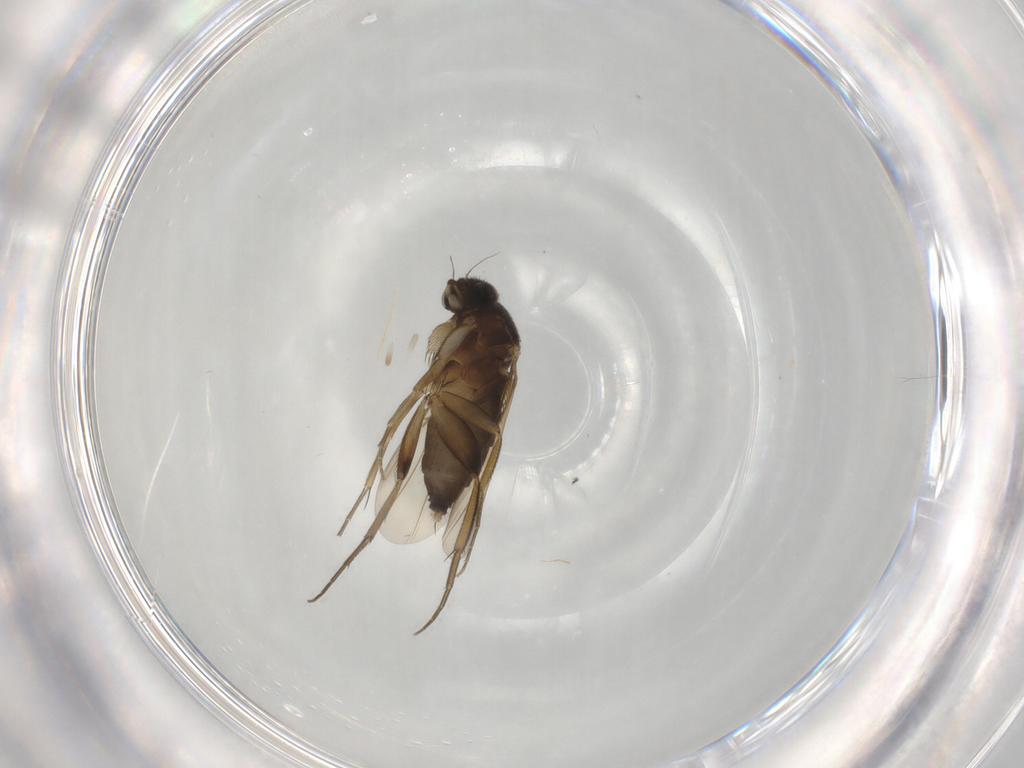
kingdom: Animalia
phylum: Arthropoda
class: Insecta
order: Diptera
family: Phoridae
